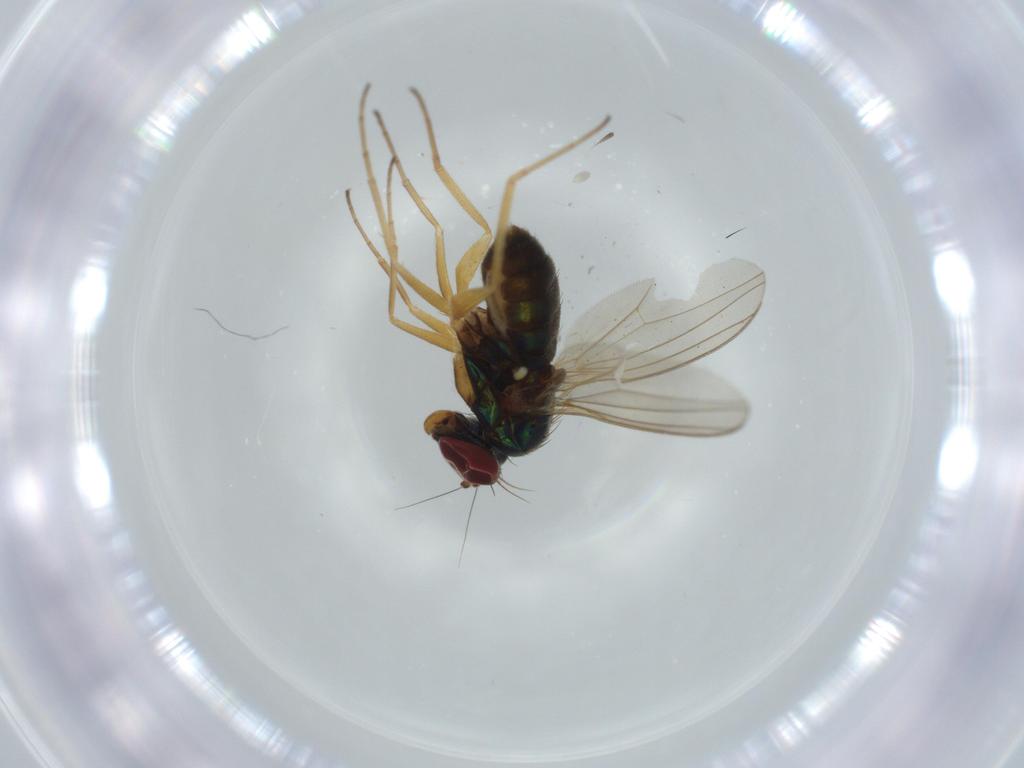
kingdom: Animalia
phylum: Arthropoda
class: Insecta
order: Diptera
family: Dolichopodidae
